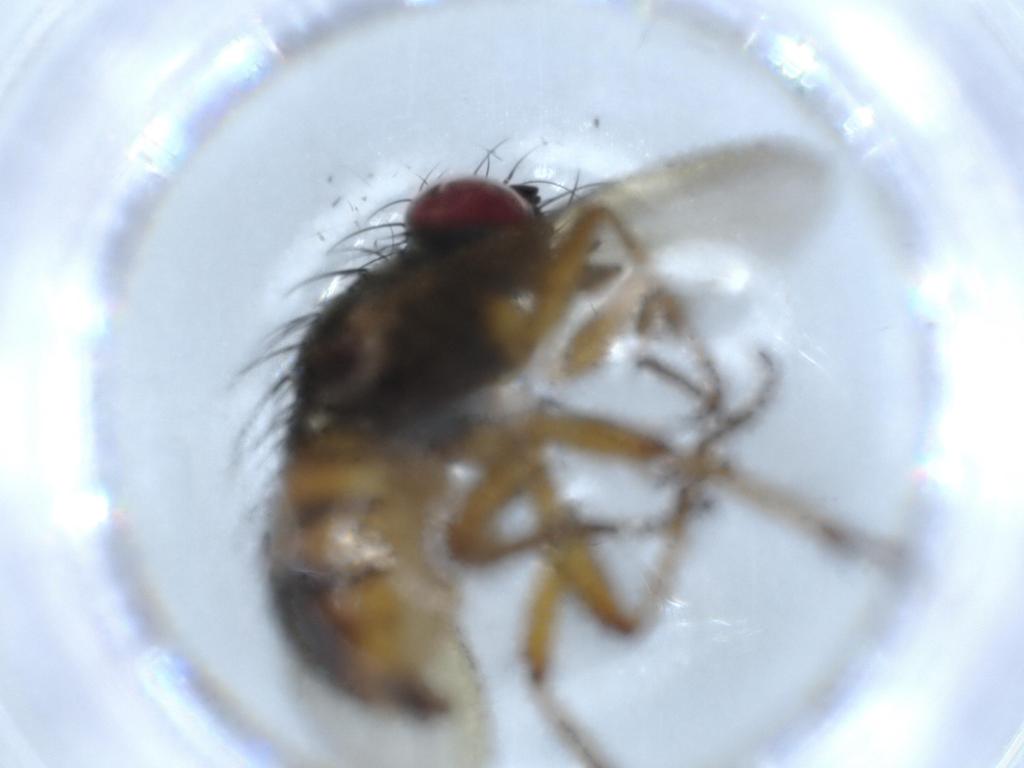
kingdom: Animalia
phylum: Arthropoda
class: Insecta
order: Diptera
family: Muscidae
